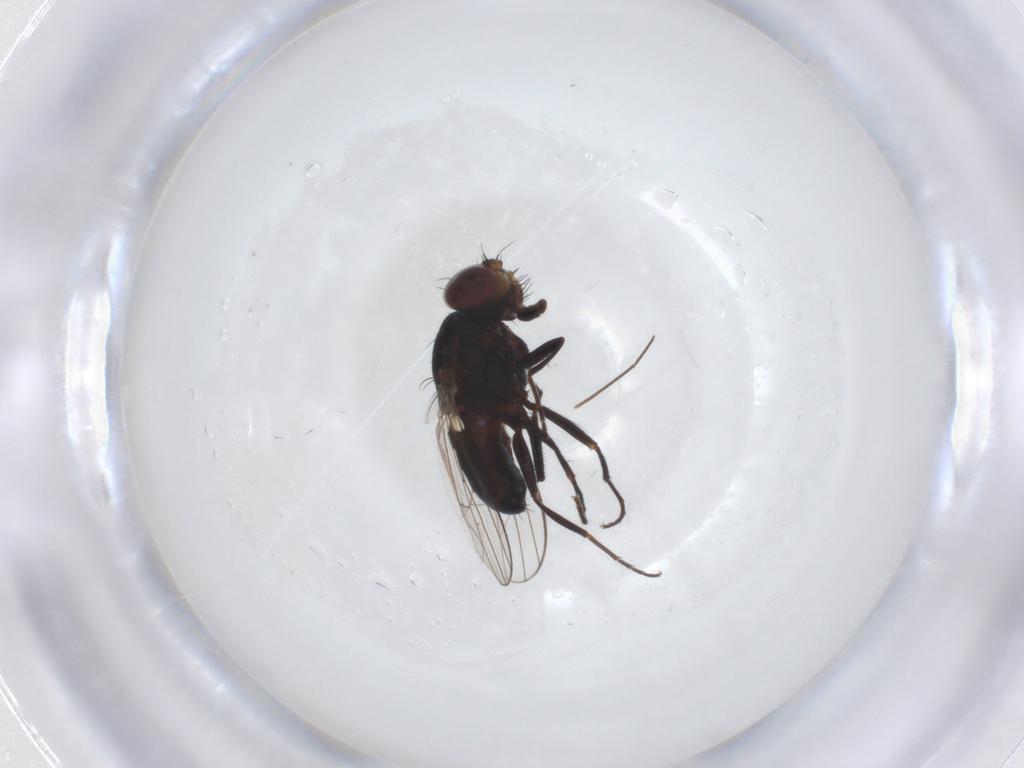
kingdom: Animalia
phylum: Arthropoda
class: Insecta
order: Diptera
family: Carnidae
